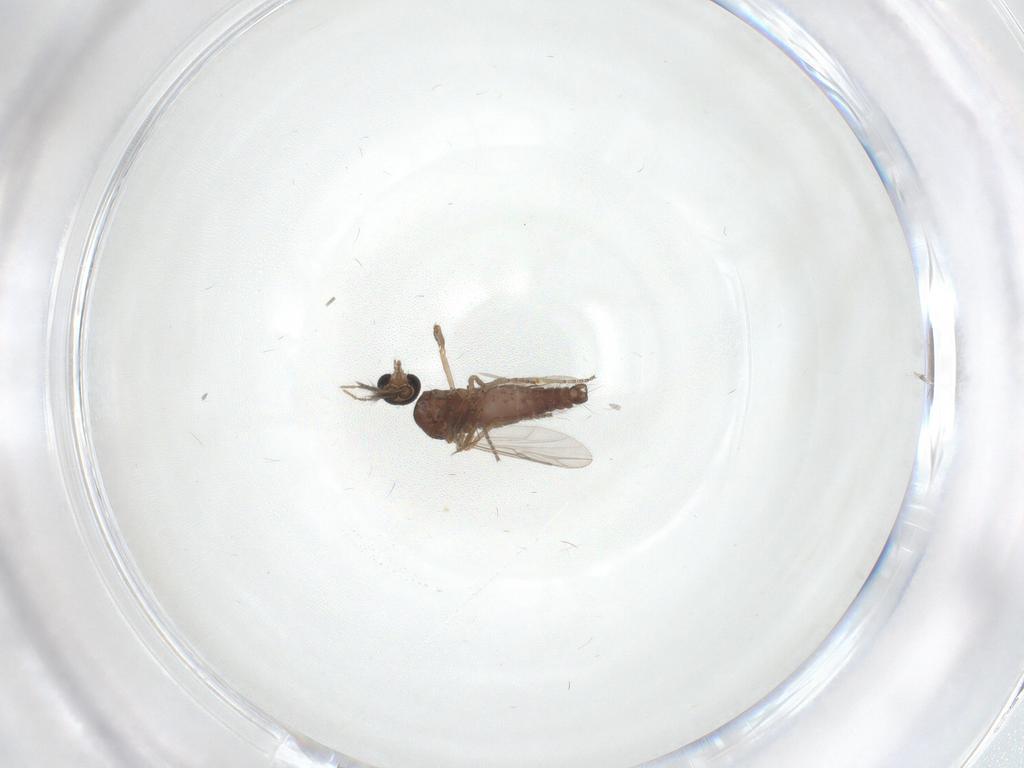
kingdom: Animalia
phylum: Arthropoda
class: Insecta
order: Diptera
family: Ceratopogonidae
